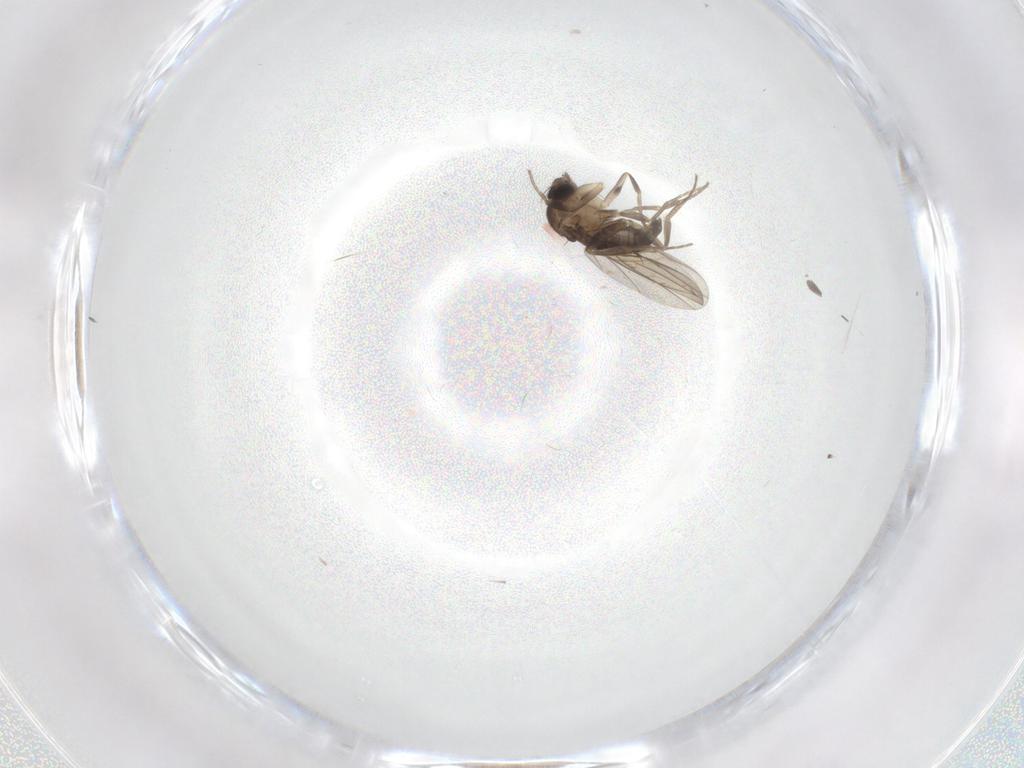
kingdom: Animalia
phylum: Arthropoda
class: Insecta
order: Diptera
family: Phoridae
